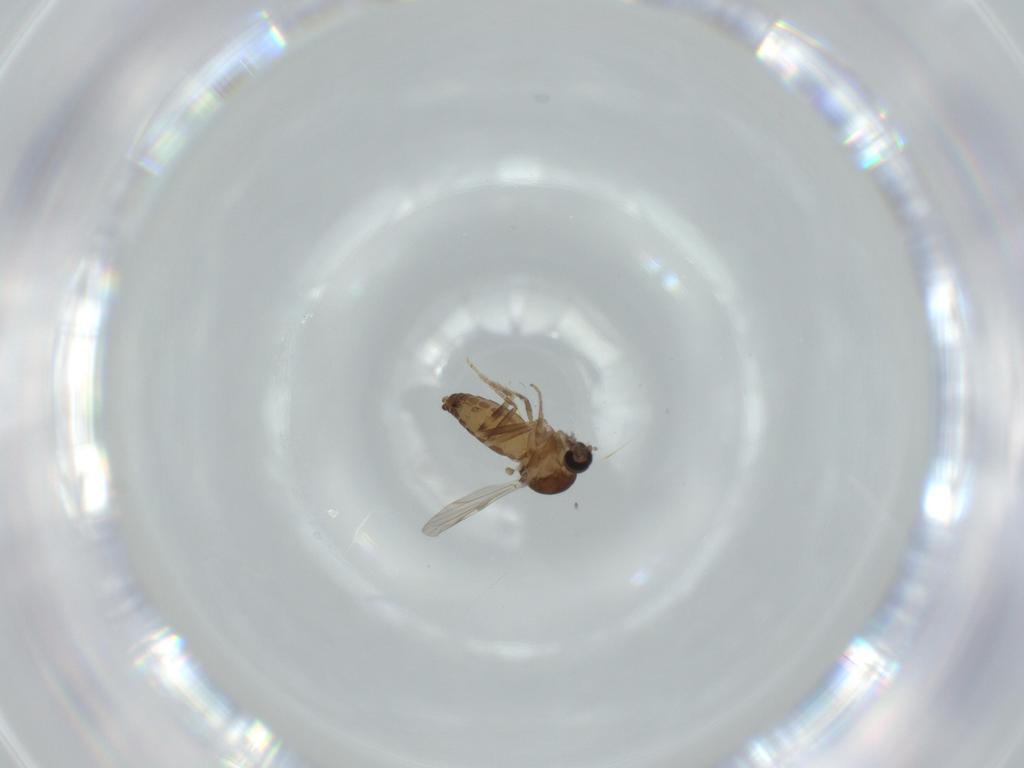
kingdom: Animalia
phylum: Arthropoda
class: Insecta
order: Diptera
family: Ceratopogonidae
